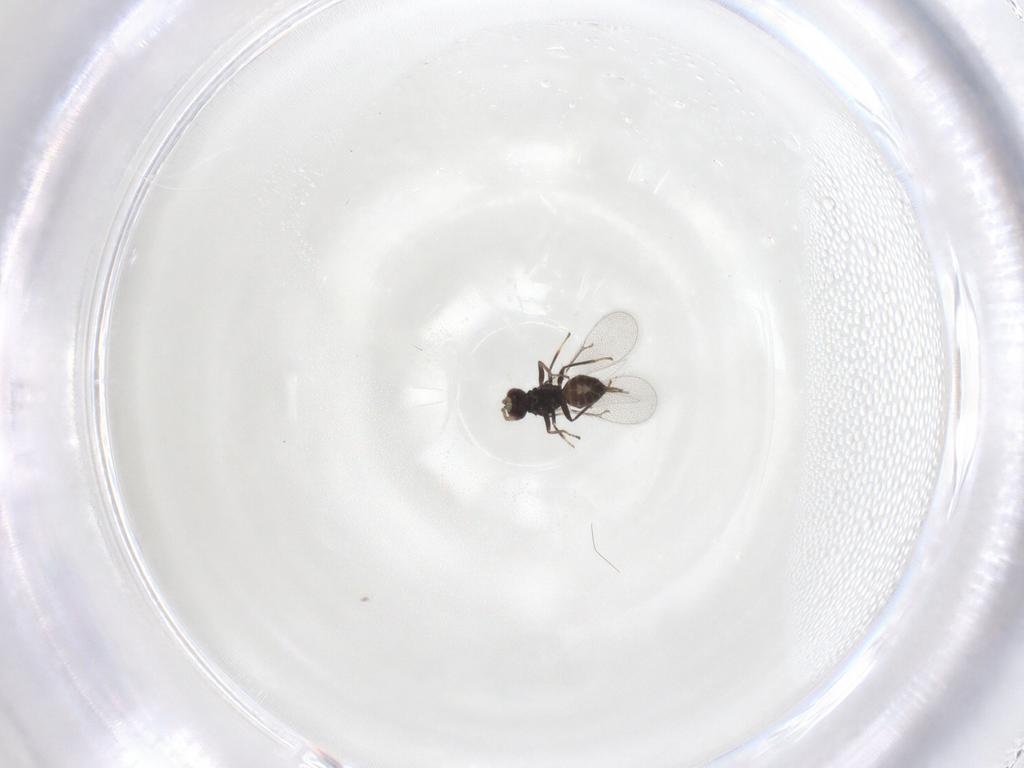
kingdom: Animalia
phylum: Arthropoda
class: Insecta
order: Hymenoptera
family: Eulophidae
